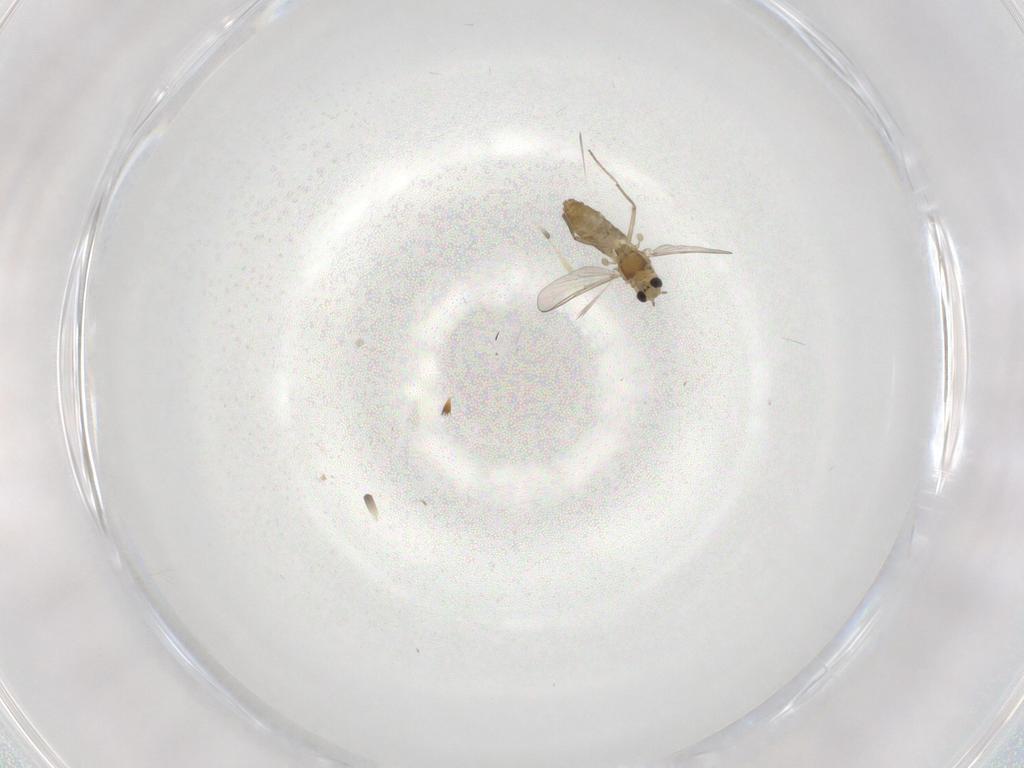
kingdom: Animalia
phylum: Arthropoda
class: Insecta
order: Diptera
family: Chironomidae
